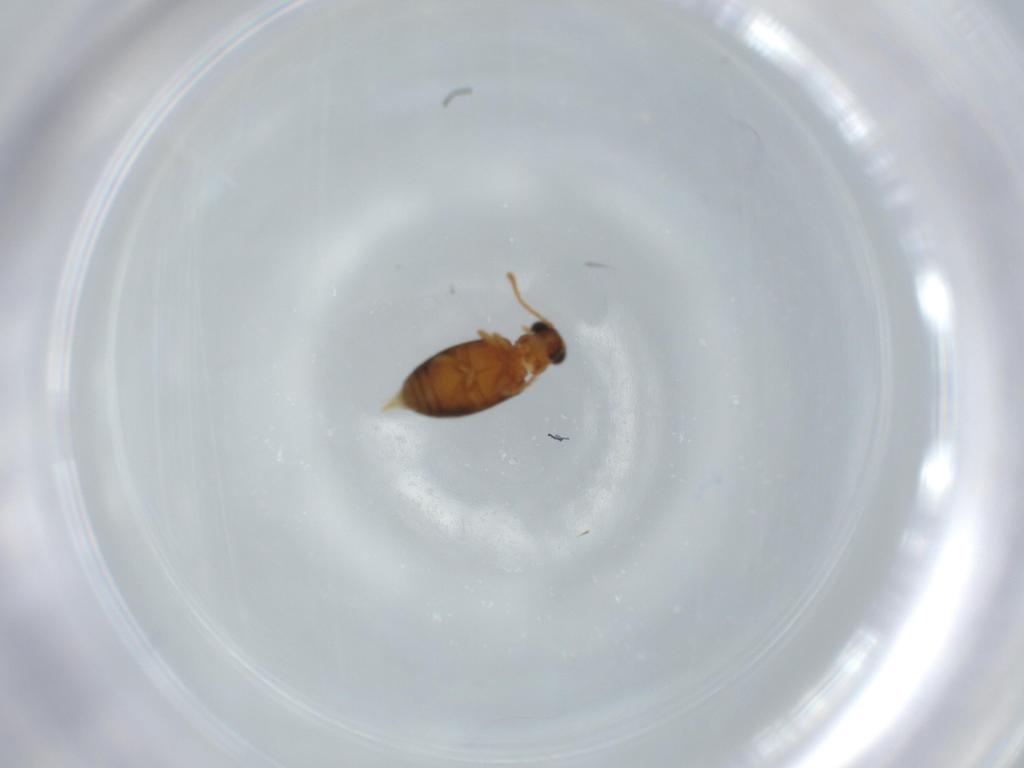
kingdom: Animalia
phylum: Arthropoda
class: Insecta
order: Coleoptera
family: Aderidae
